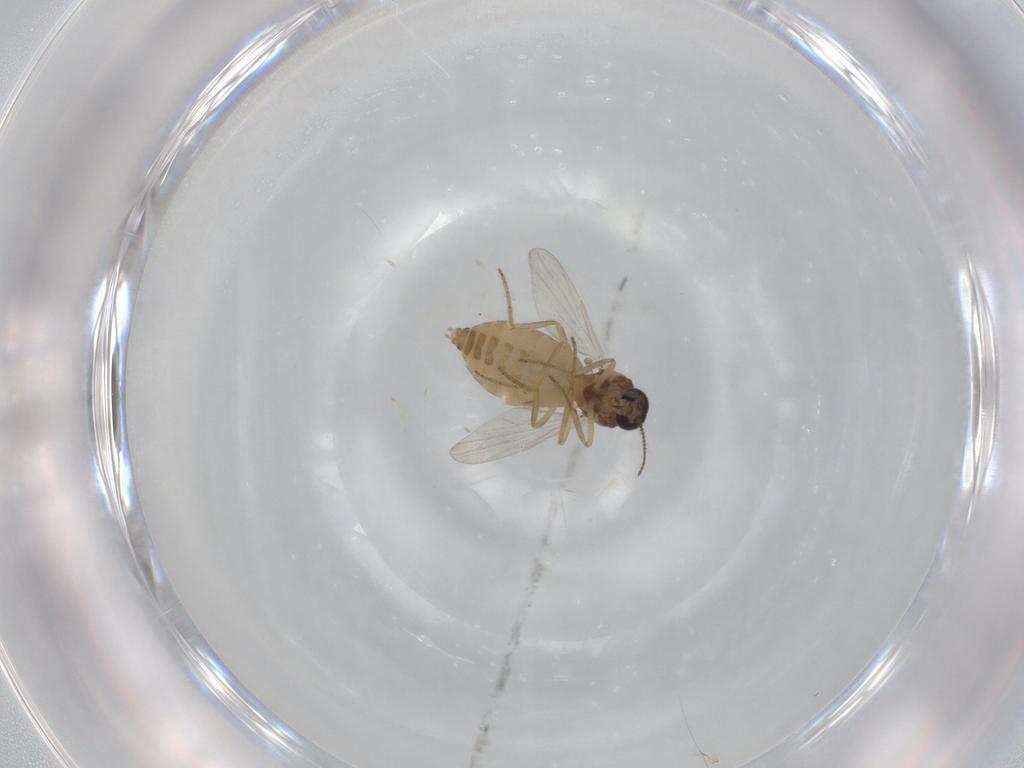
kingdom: Animalia
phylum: Arthropoda
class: Insecta
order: Diptera
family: Ceratopogonidae
